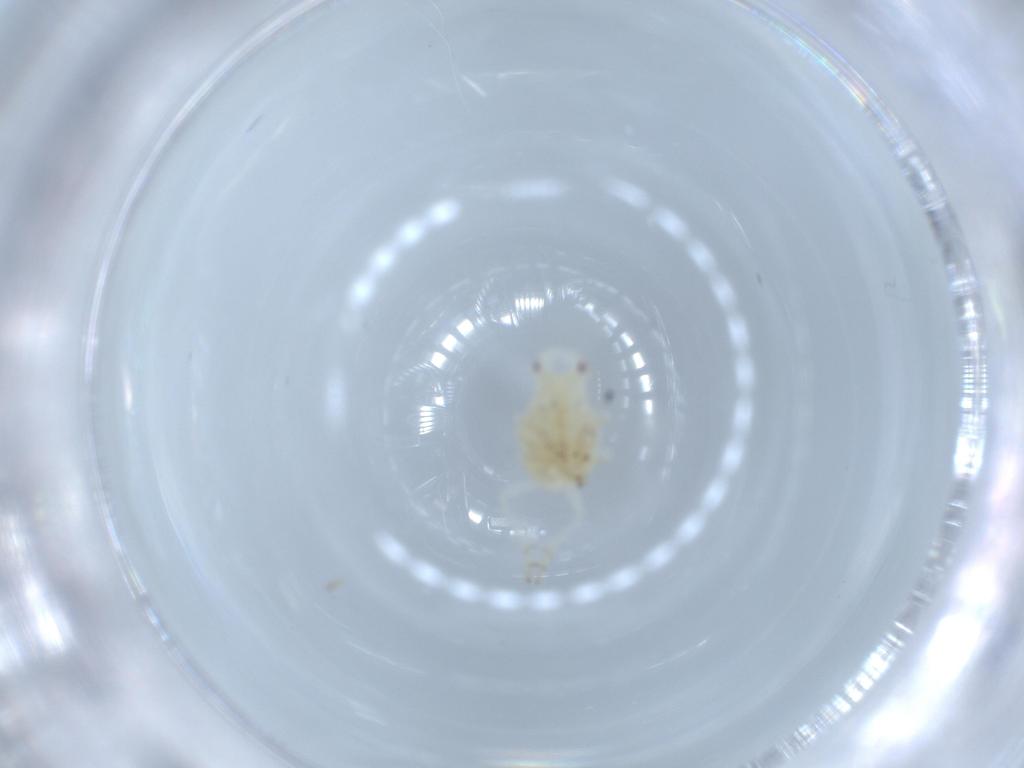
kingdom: Animalia
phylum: Arthropoda
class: Insecta
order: Hemiptera
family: Flatidae
